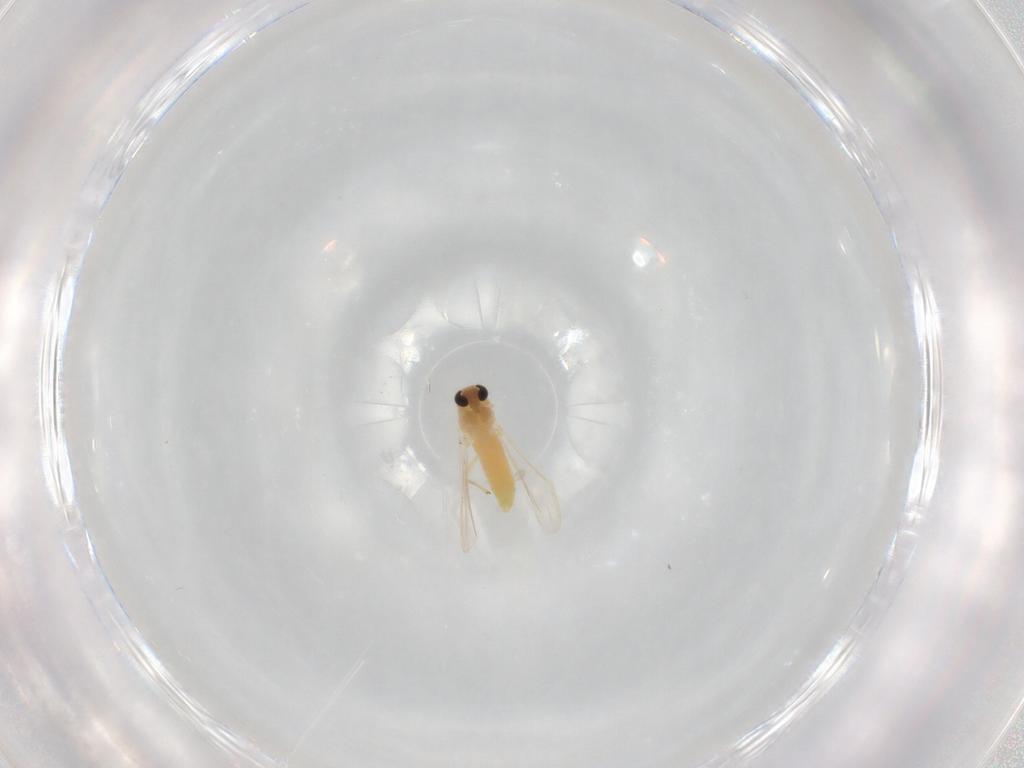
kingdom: Animalia
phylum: Arthropoda
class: Insecta
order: Diptera
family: Chironomidae
